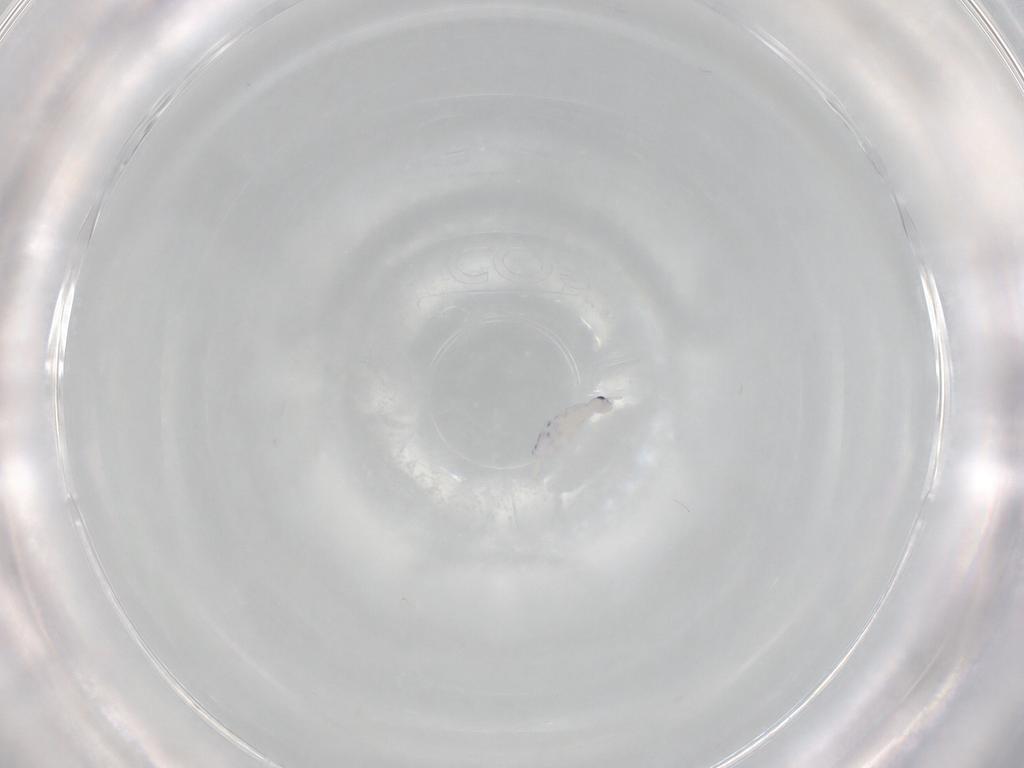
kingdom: Animalia
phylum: Arthropoda
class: Collembola
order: Entomobryomorpha
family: Entomobryidae
